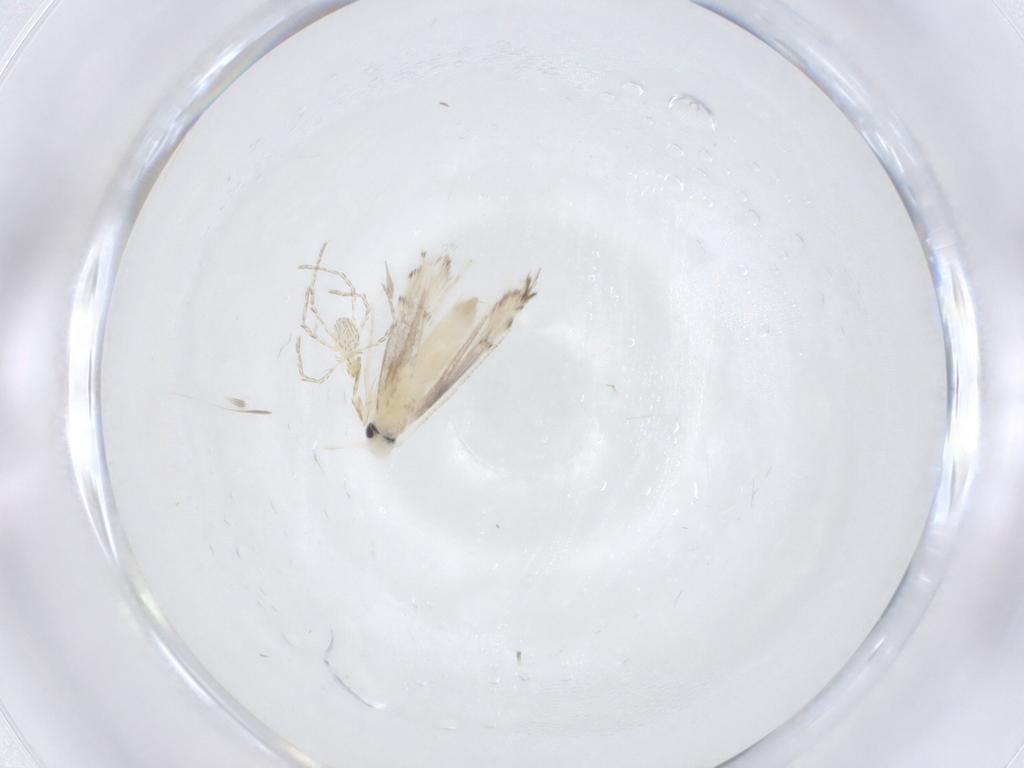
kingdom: Animalia
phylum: Arthropoda
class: Arachnida
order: Trombidiformes
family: Erythraeidae
